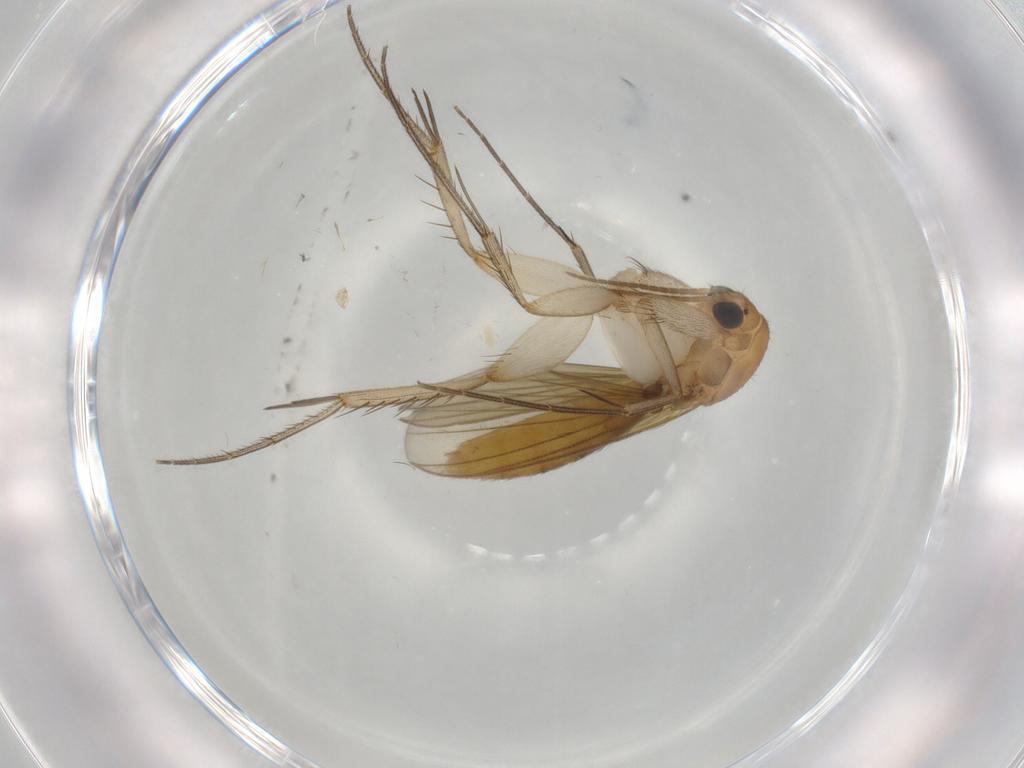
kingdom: Animalia
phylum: Arthropoda
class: Insecta
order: Diptera
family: Mycetophilidae
